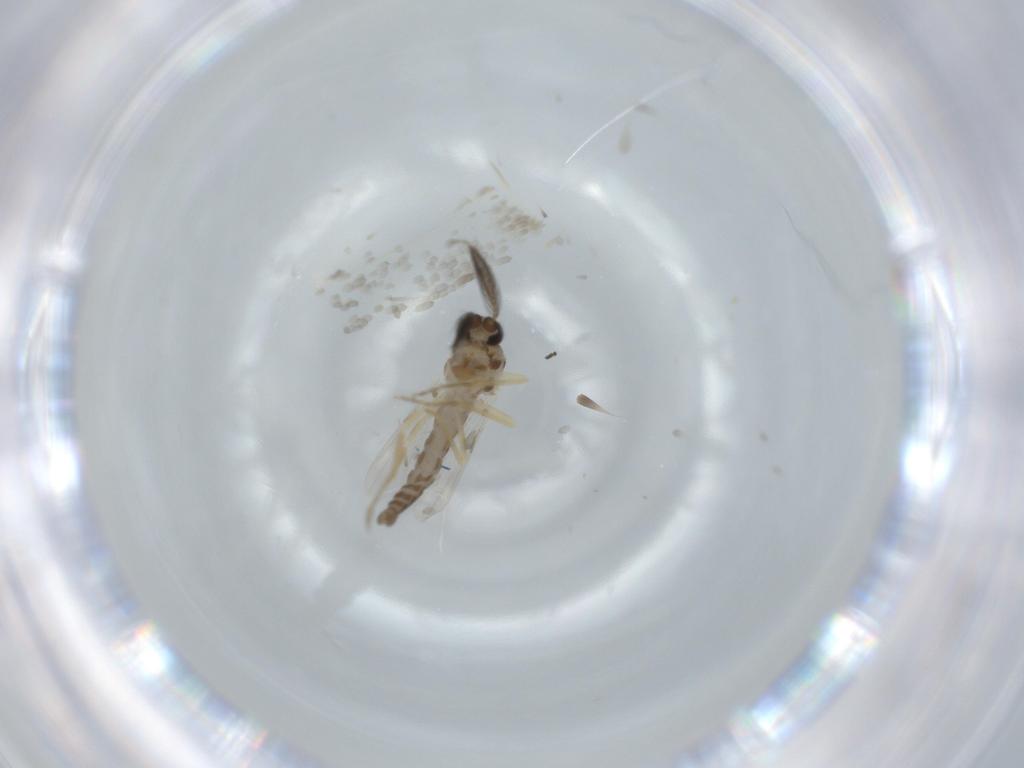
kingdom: Animalia
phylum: Arthropoda
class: Insecta
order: Diptera
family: Ceratopogonidae
